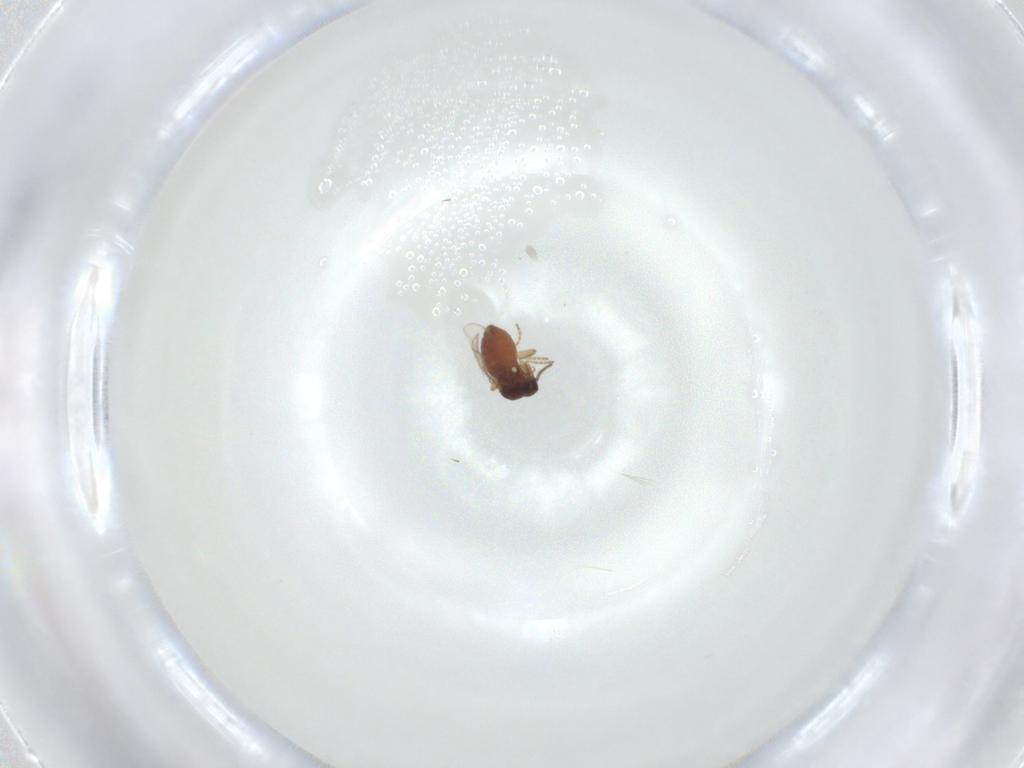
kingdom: Animalia
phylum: Arthropoda
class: Insecta
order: Diptera
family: Ceratopogonidae
